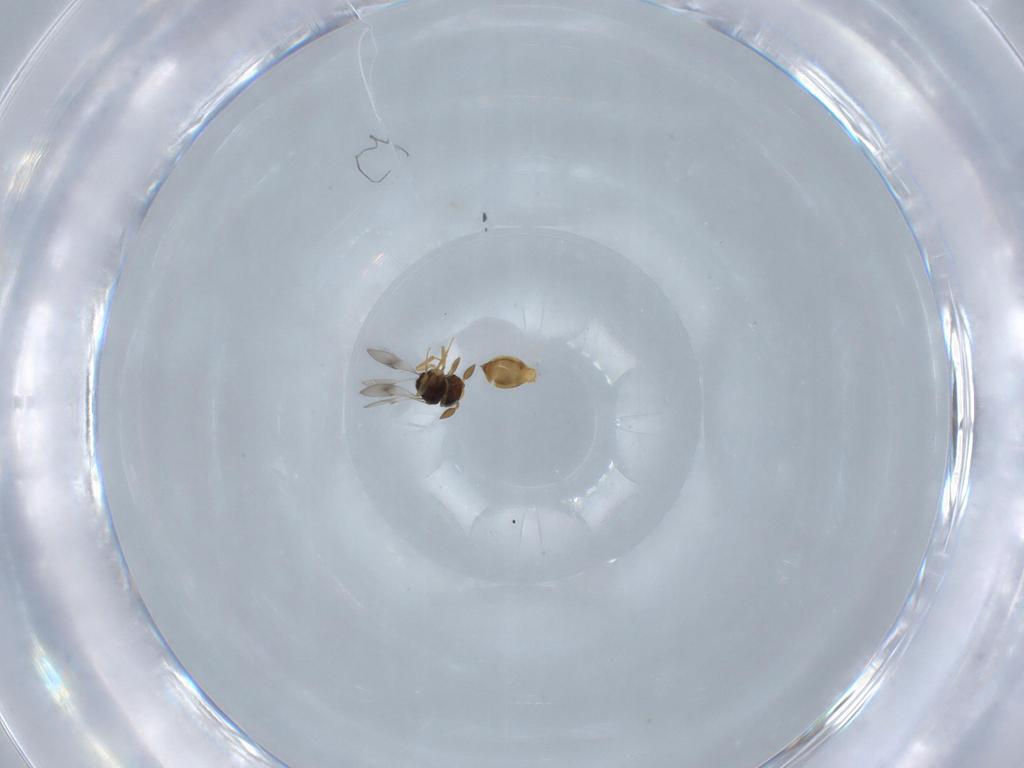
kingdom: Animalia
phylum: Arthropoda
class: Insecta
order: Hymenoptera
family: Scelionidae
